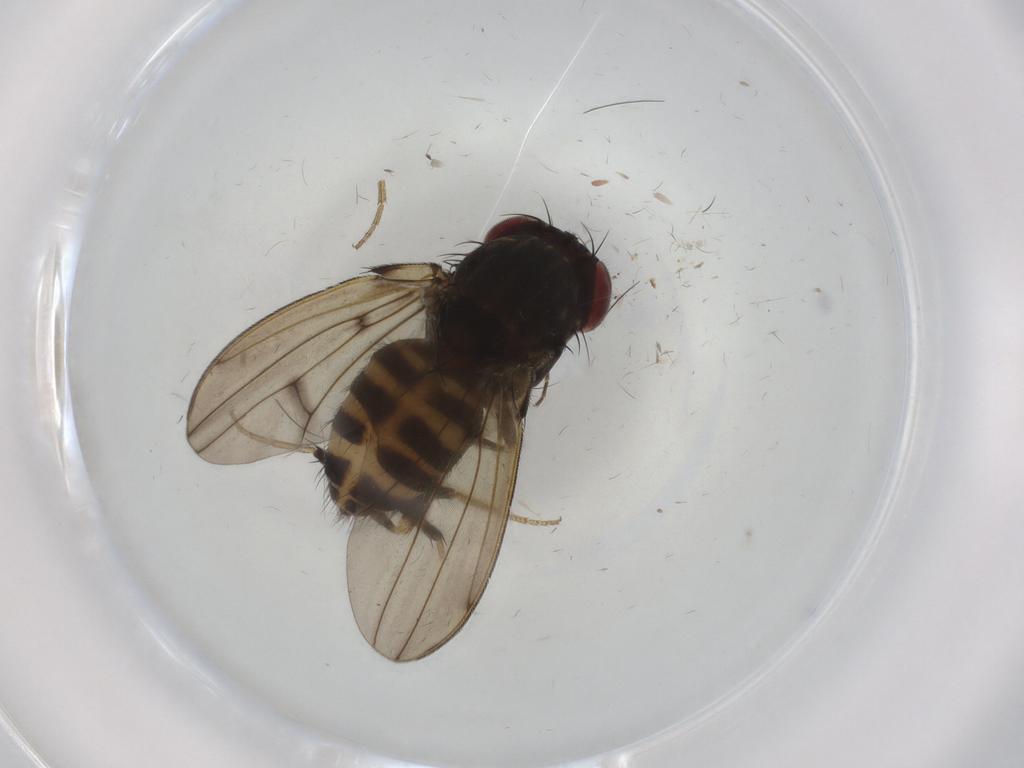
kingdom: Animalia
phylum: Arthropoda
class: Insecta
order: Diptera
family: Drosophilidae
